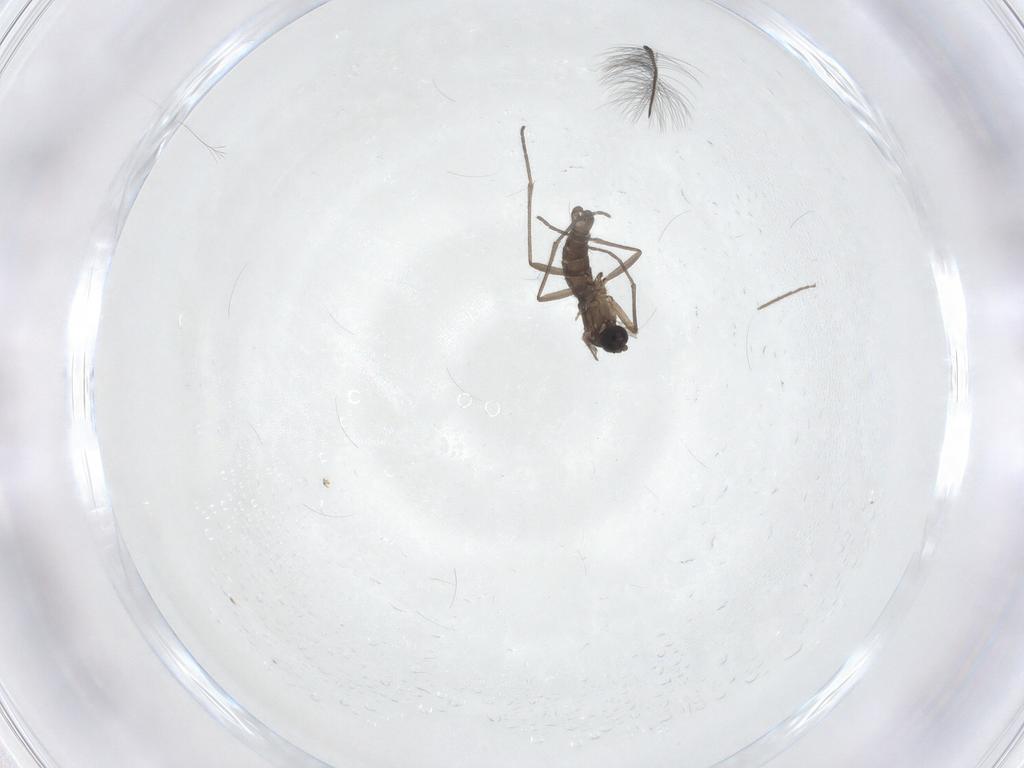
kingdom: Animalia
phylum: Arthropoda
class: Insecta
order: Diptera
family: Sciaridae
